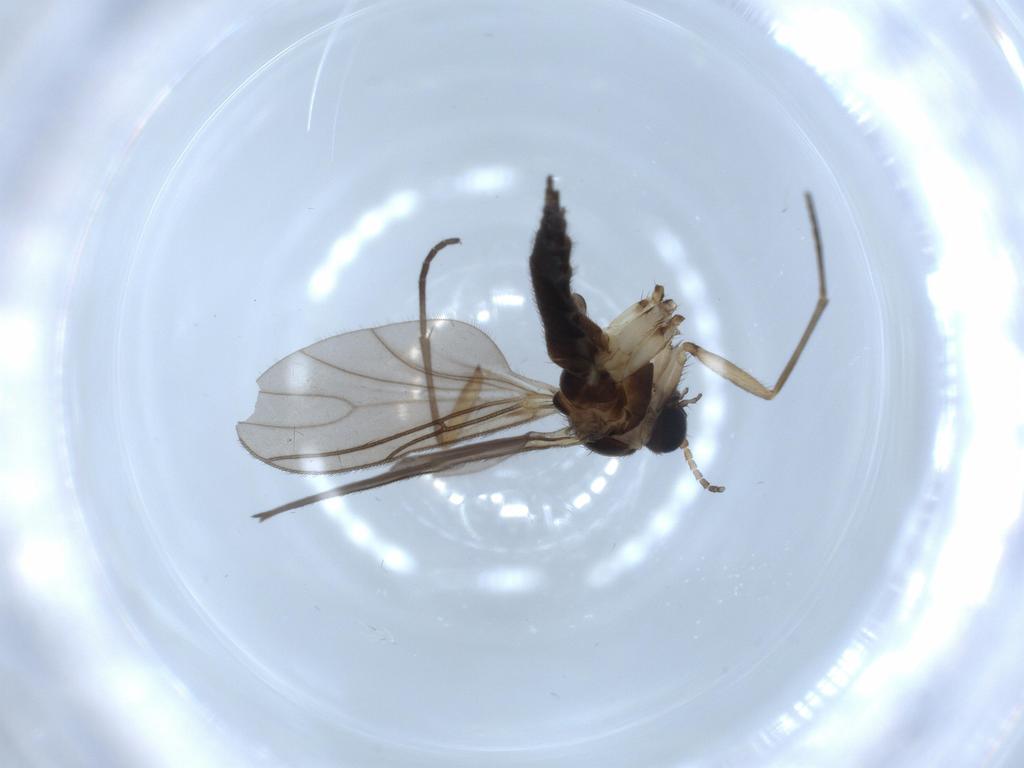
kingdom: Animalia
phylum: Arthropoda
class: Insecta
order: Diptera
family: Sciaridae
